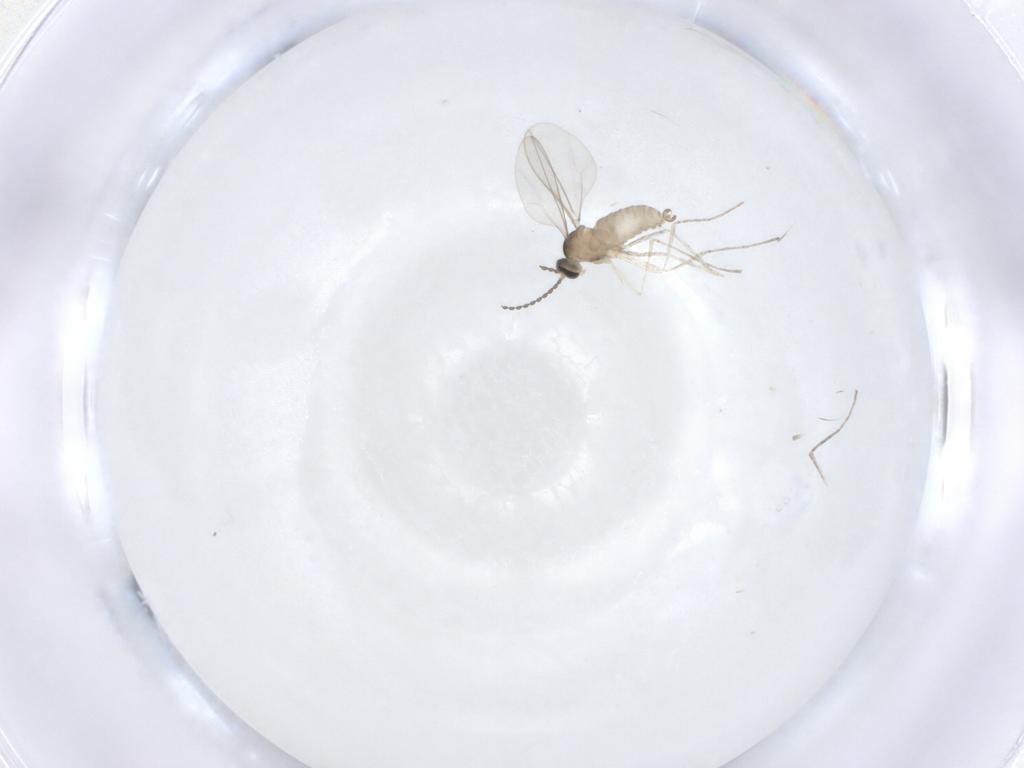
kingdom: Animalia
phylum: Arthropoda
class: Insecta
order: Diptera
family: Cecidomyiidae
